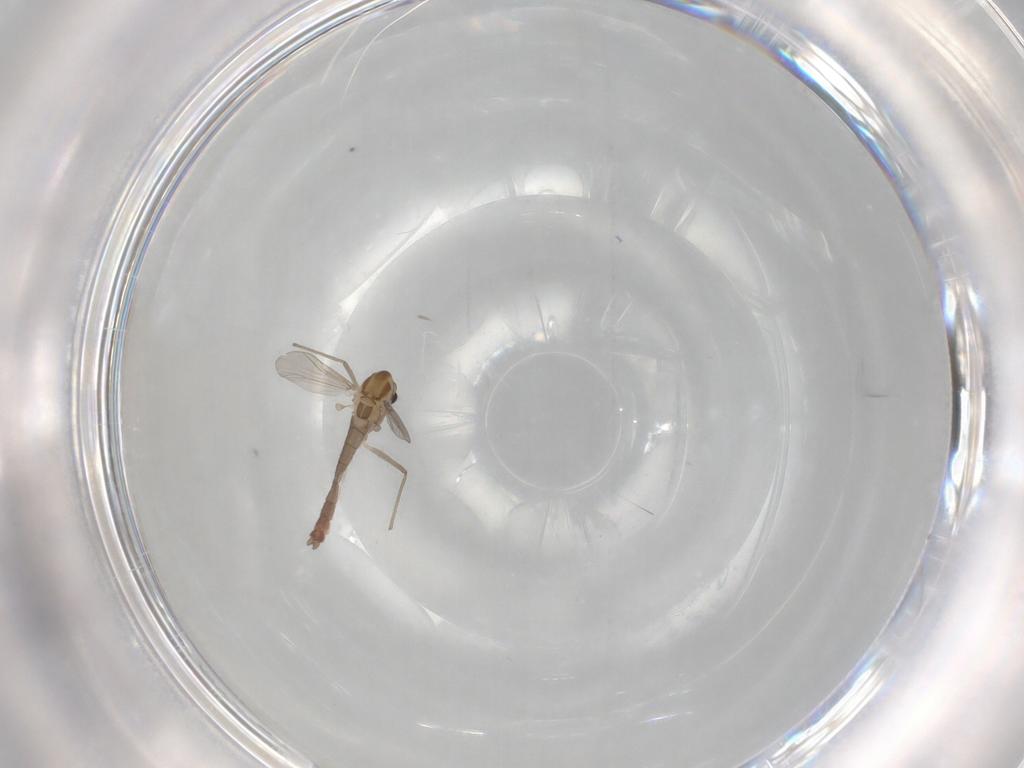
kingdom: Animalia
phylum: Arthropoda
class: Insecta
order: Diptera
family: Chironomidae
